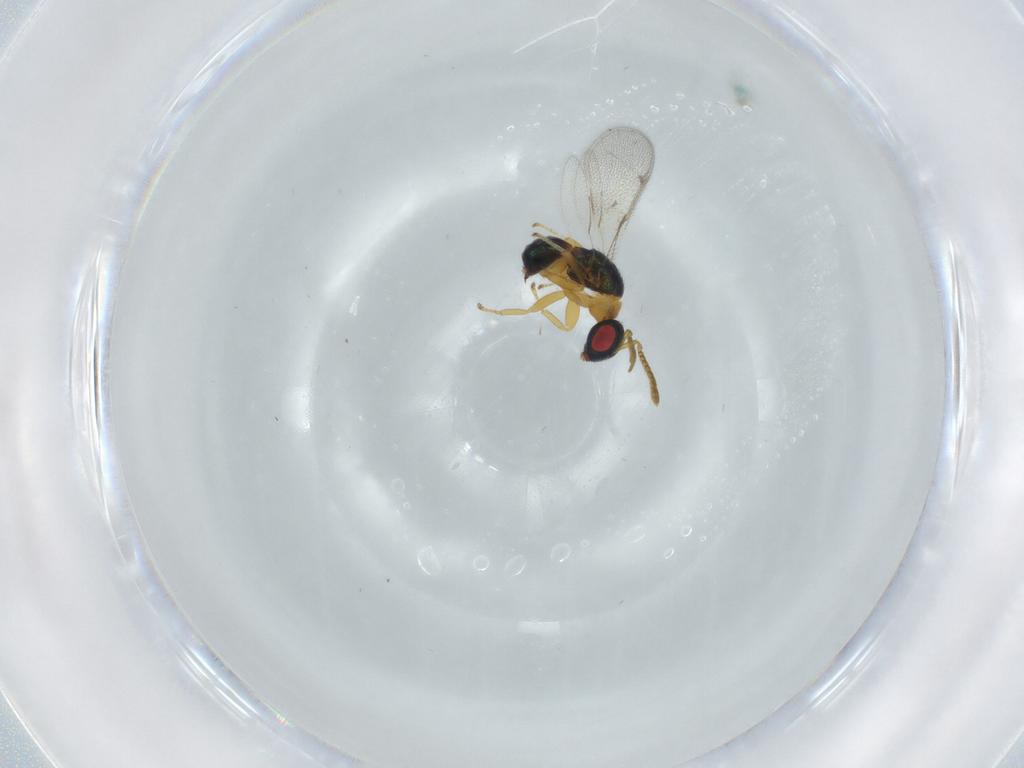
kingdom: Animalia
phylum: Arthropoda
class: Insecta
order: Hymenoptera
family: Torymidae
